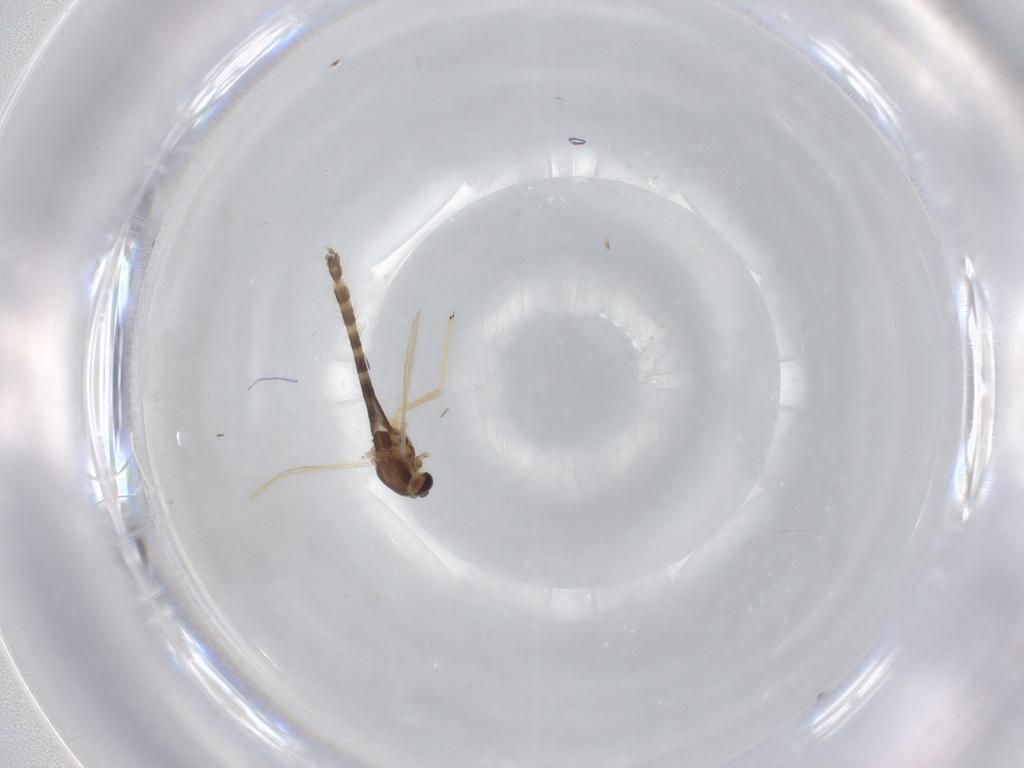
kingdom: Animalia
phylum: Arthropoda
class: Insecta
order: Diptera
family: Chironomidae
